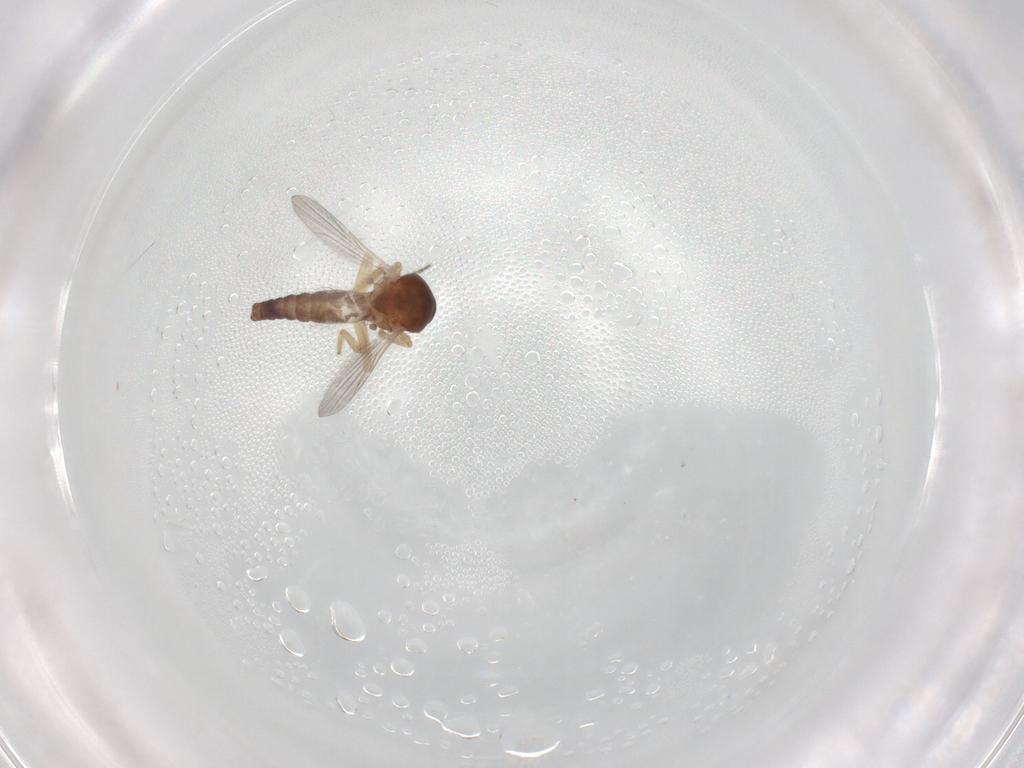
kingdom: Animalia
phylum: Arthropoda
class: Insecta
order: Diptera
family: Ceratopogonidae
